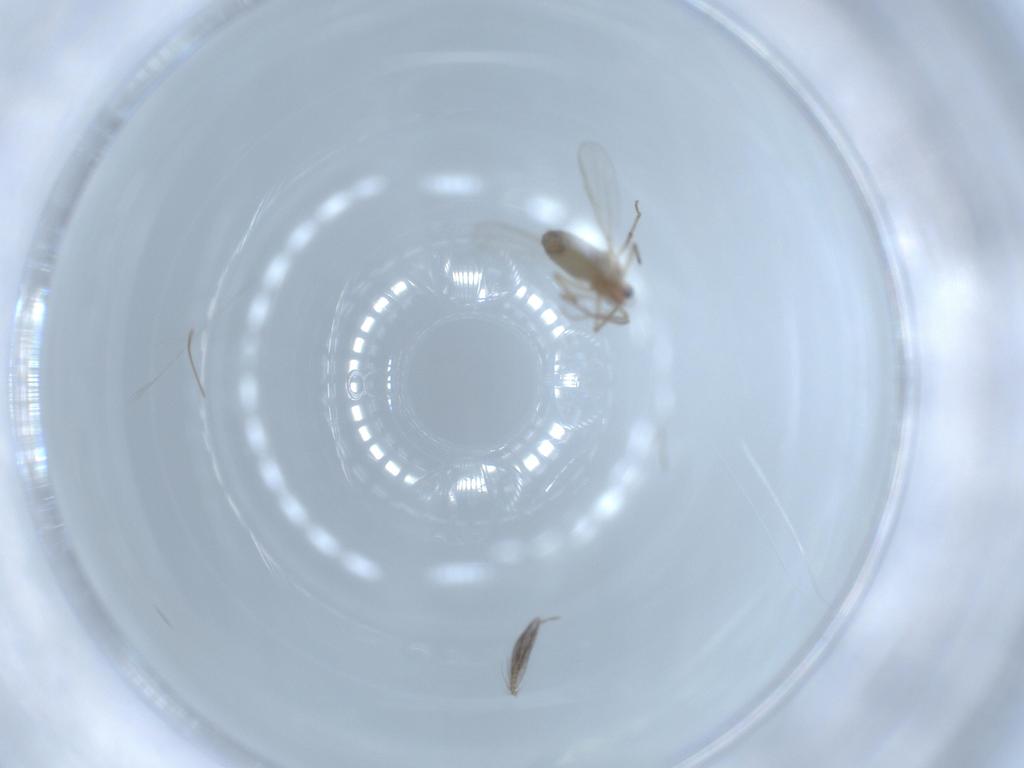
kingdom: Animalia
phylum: Arthropoda
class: Insecta
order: Diptera
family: Chironomidae
